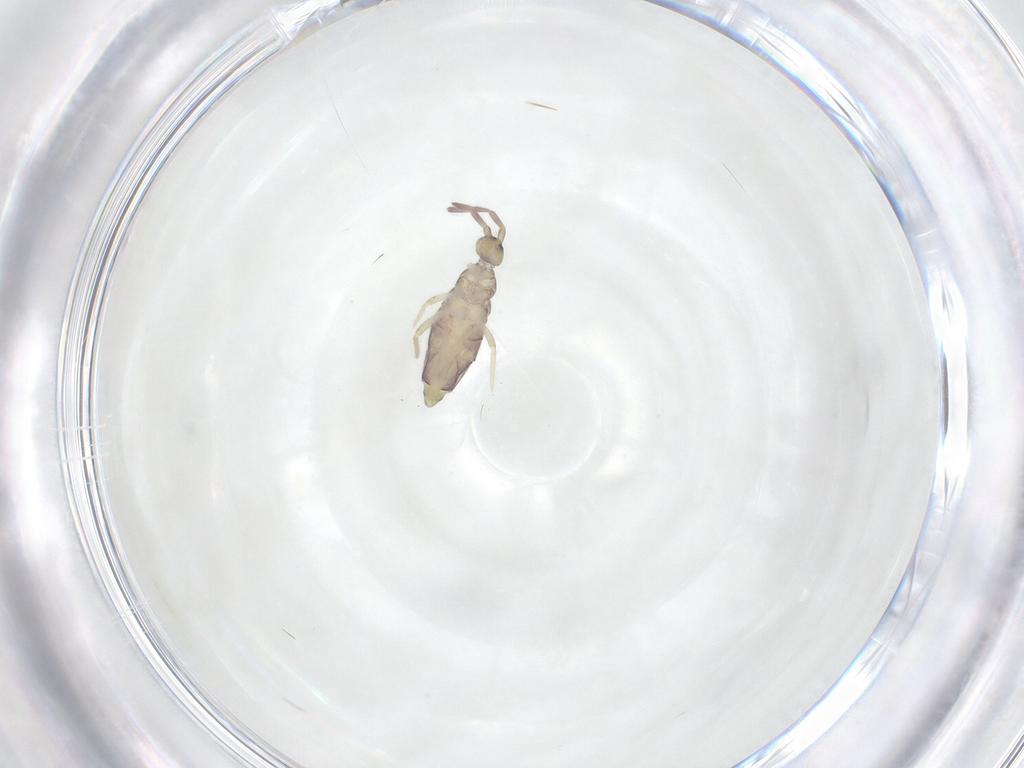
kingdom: Animalia
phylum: Arthropoda
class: Collembola
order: Entomobryomorpha
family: Entomobryidae
